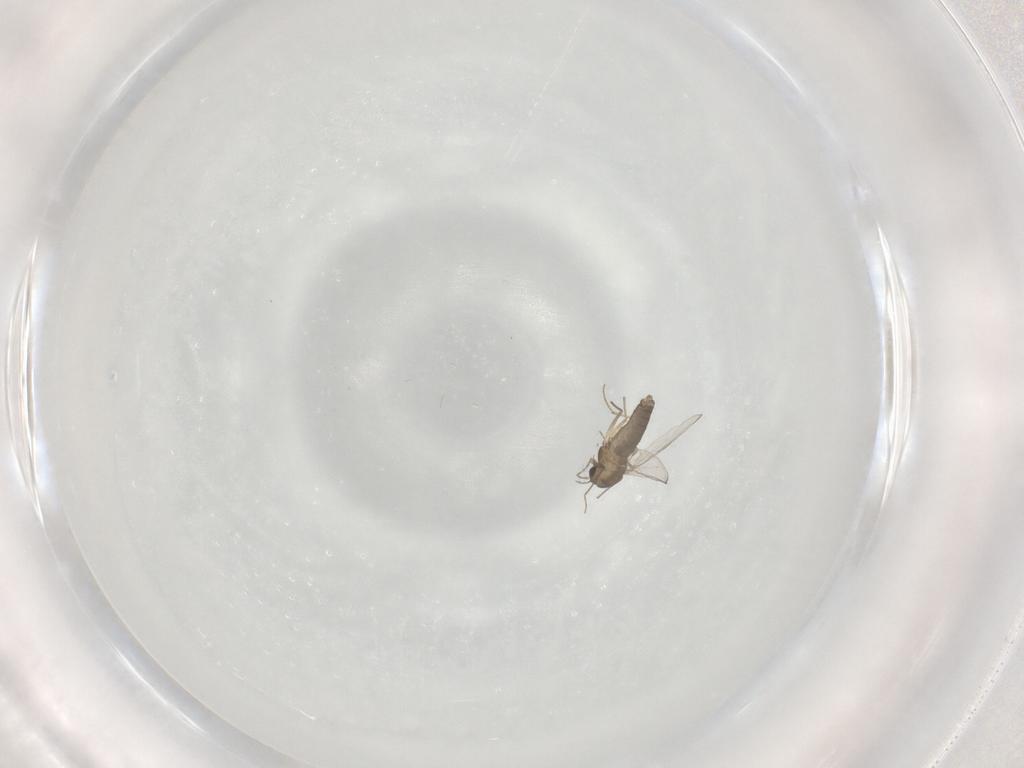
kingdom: Animalia
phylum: Arthropoda
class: Insecta
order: Diptera
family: Chironomidae
